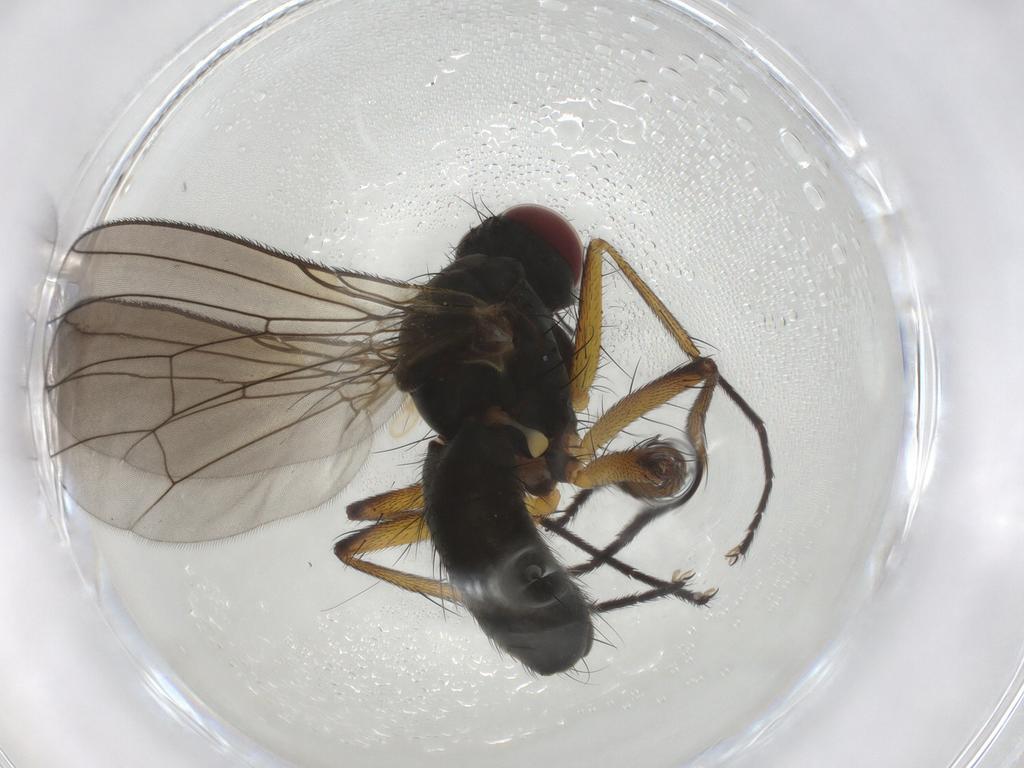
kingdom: Animalia
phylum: Arthropoda
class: Insecta
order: Diptera
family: Muscidae
